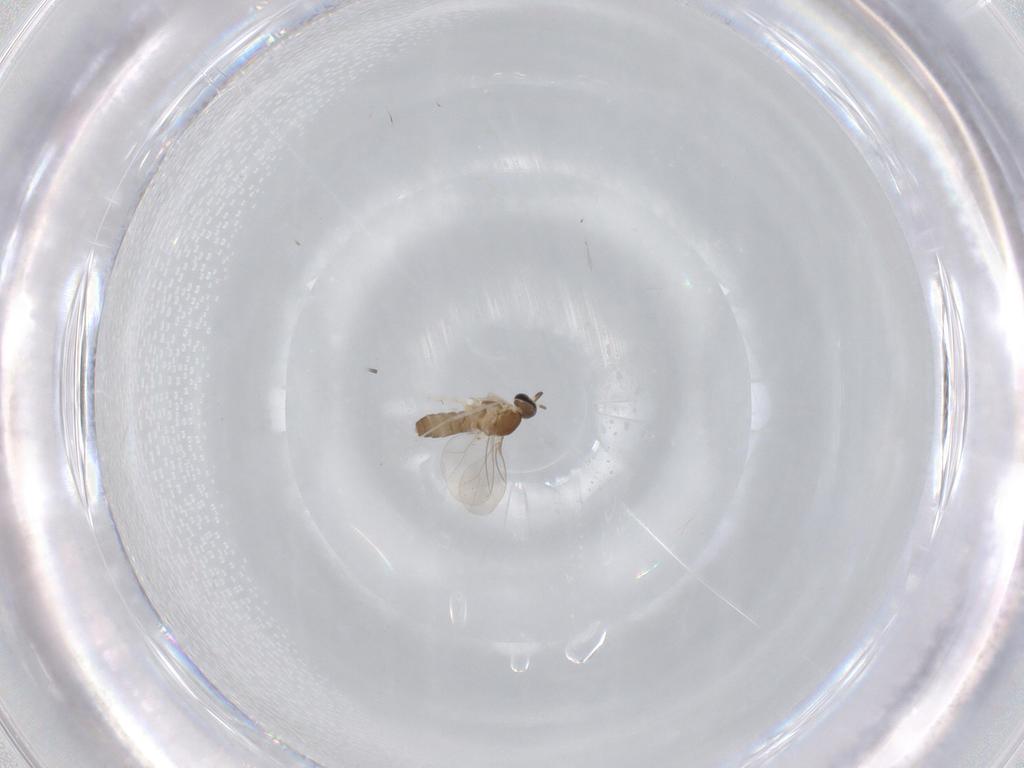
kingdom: Animalia
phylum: Arthropoda
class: Insecta
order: Diptera
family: Cecidomyiidae
